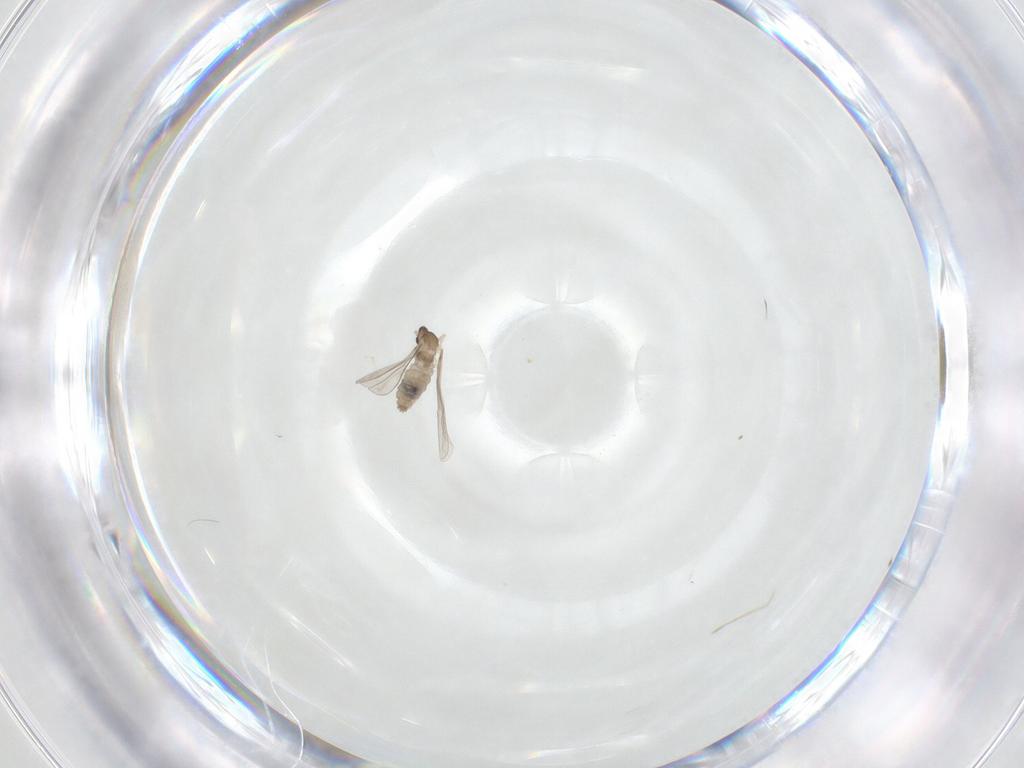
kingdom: Animalia
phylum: Arthropoda
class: Insecta
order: Diptera
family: Cecidomyiidae
